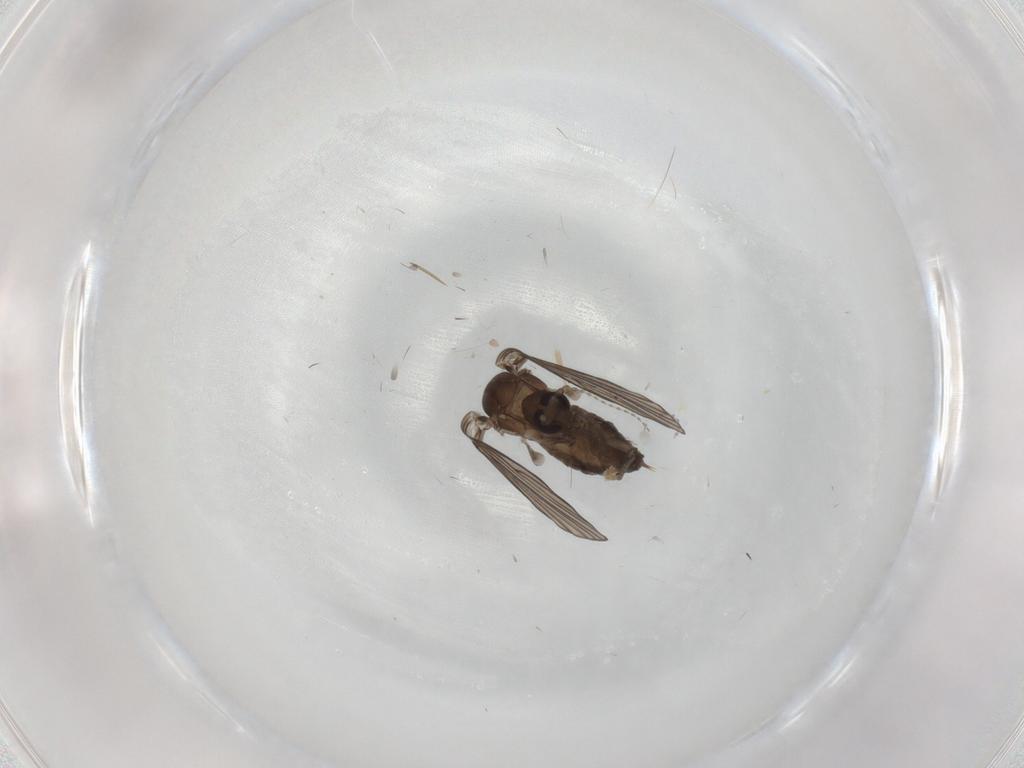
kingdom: Animalia
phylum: Arthropoda
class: Insecta
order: Diptera
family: Psychodidae
